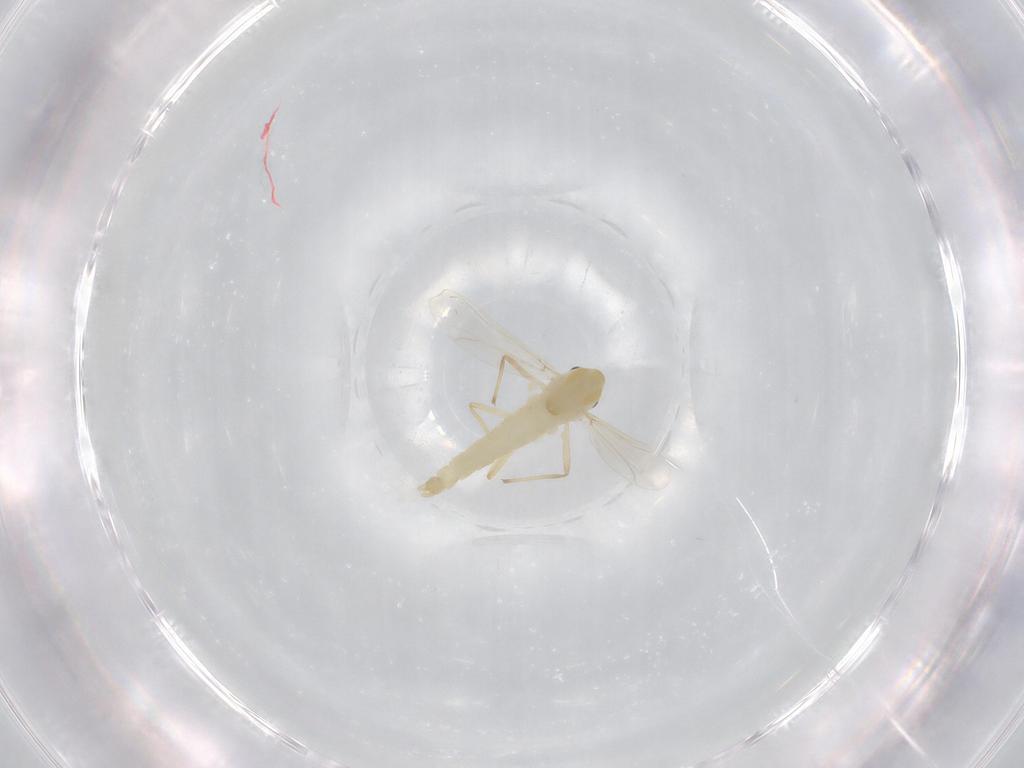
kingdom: Animalia
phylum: Arthropoda
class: Insecta
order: Diptera
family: Chironomidae
